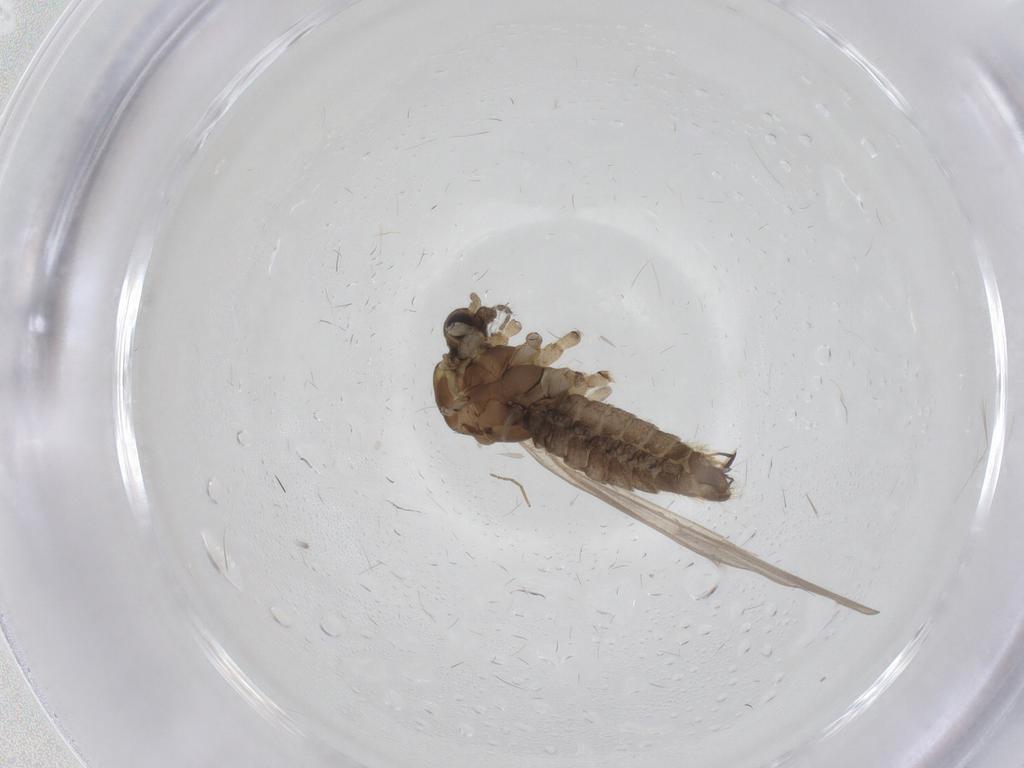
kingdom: Animalia
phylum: Arthropoda
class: Insecta
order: Diptera
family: Limoniidae
